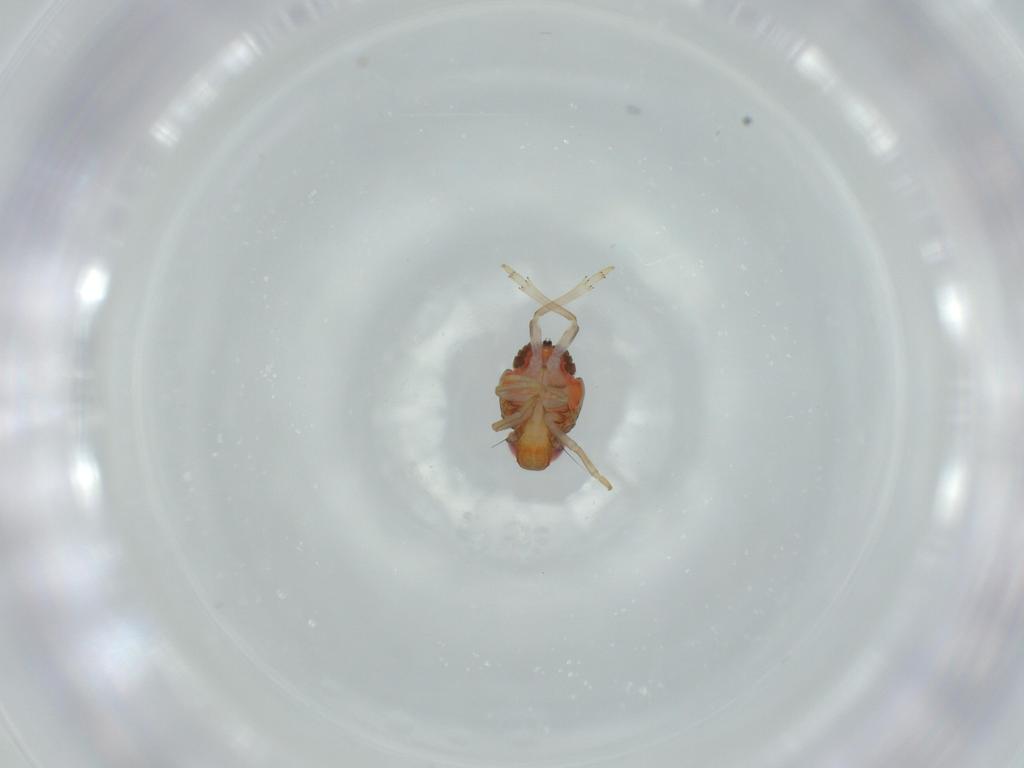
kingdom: Animalia
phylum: Arthropoda
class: Insecta
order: Hemiptera
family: Issidae
